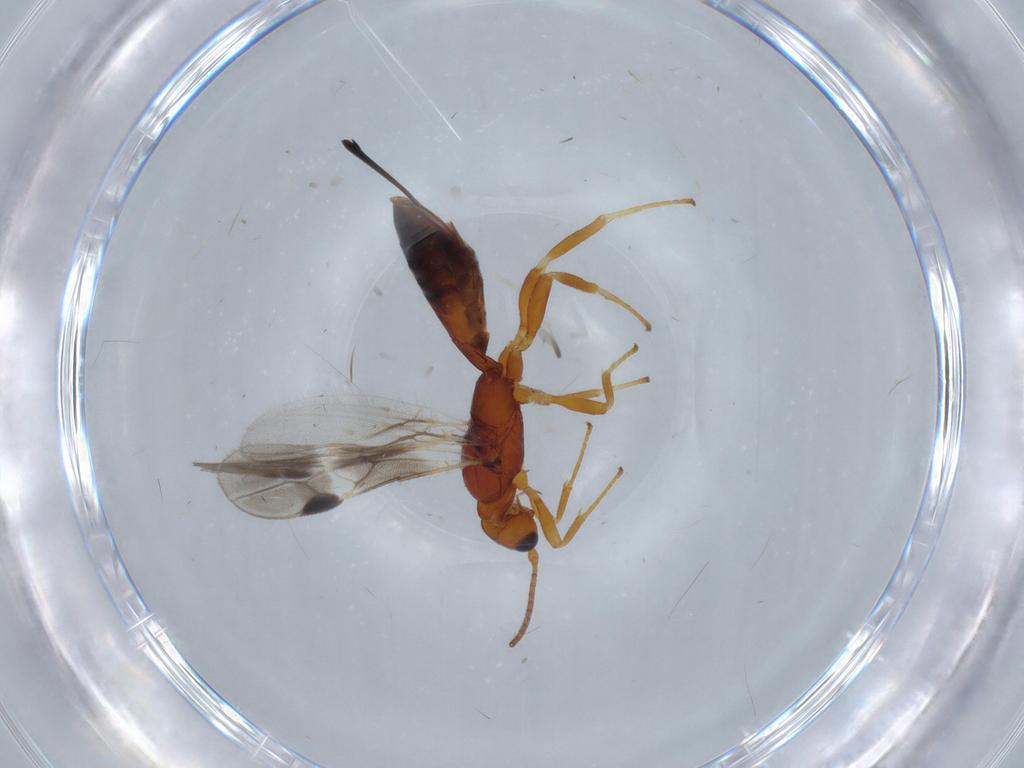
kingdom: Animalia
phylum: Arthropoda
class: Insecta
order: Hymenoptera
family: Braconidae
